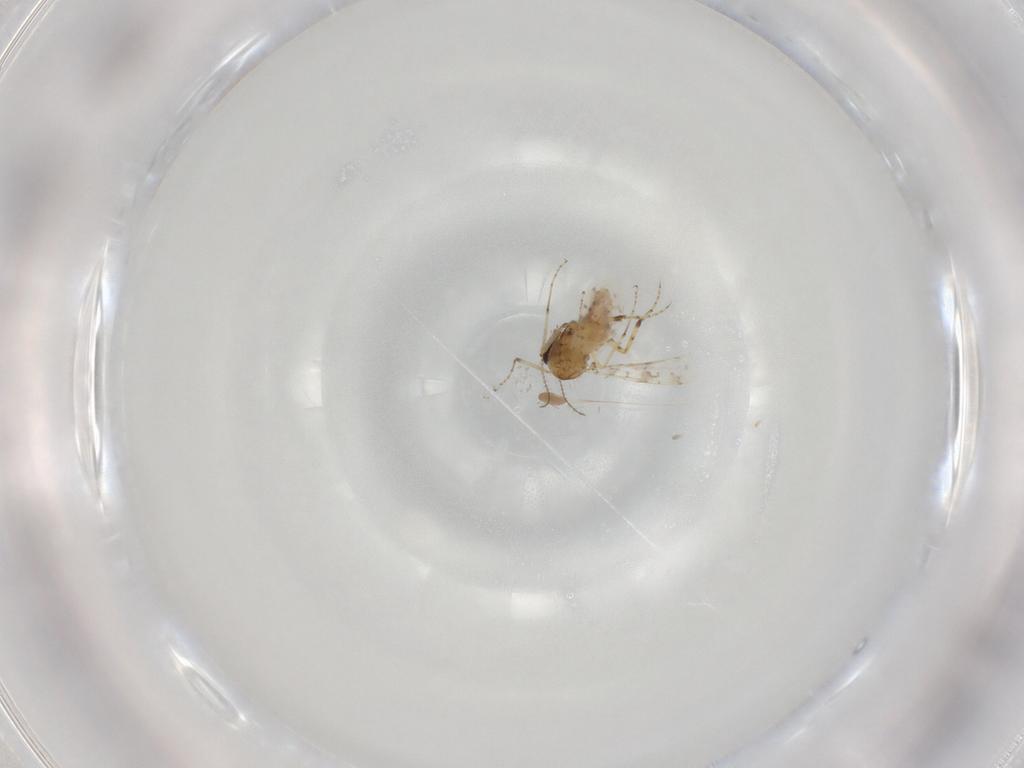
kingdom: Animalia
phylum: Arthropoda
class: Insecta
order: Diptera
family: Ceratopogonidae
